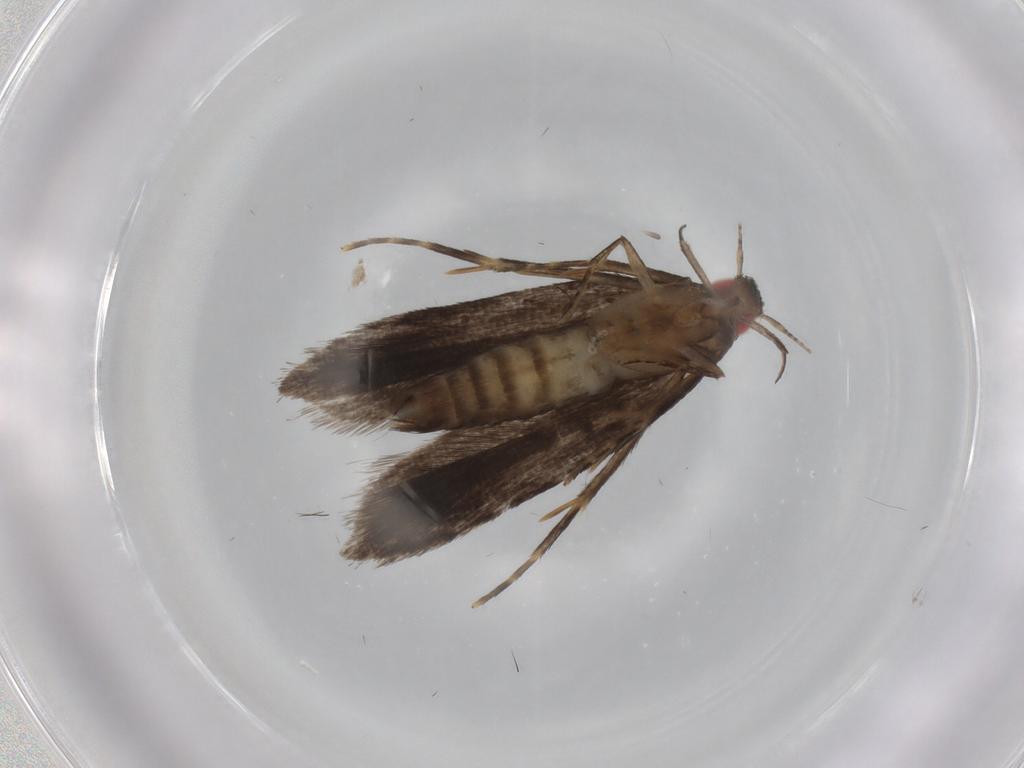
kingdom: Animalia
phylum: Arthropoda
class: Insecta
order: Lepidoptera
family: Gelechiidae
